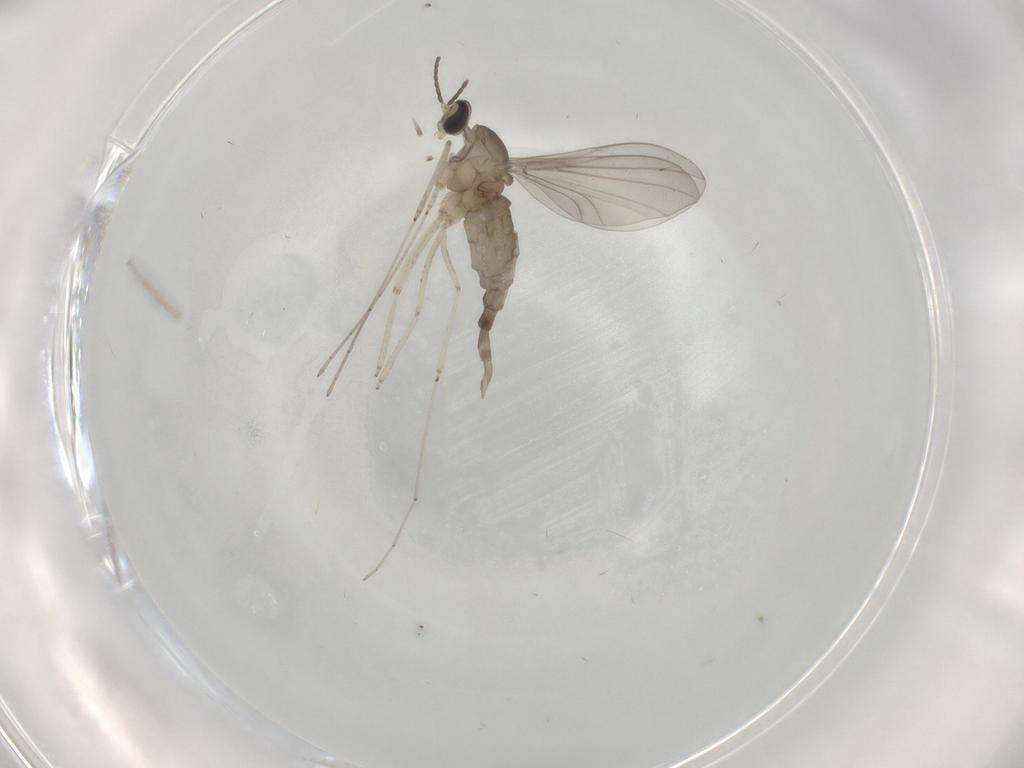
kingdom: Animalia
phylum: Arthropoda
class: Insecta
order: Diptera
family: Cecidomyiidae
